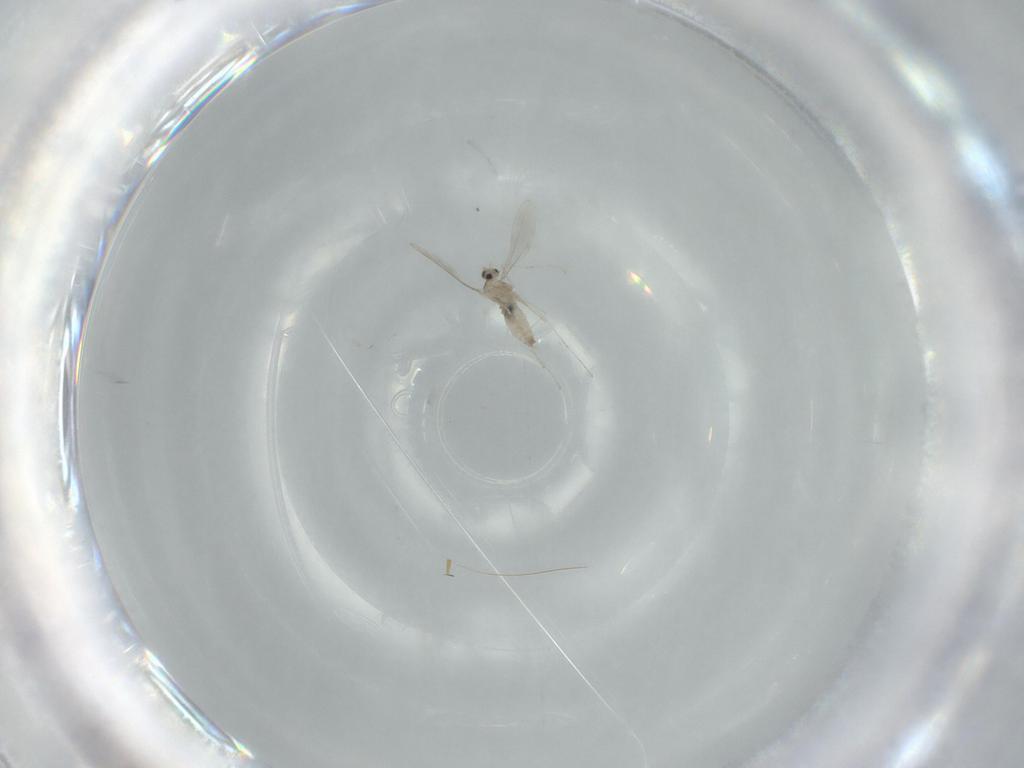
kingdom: Animalia
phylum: Arthropoda
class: Insecta
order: Diptera
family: Cecidomyiidae
